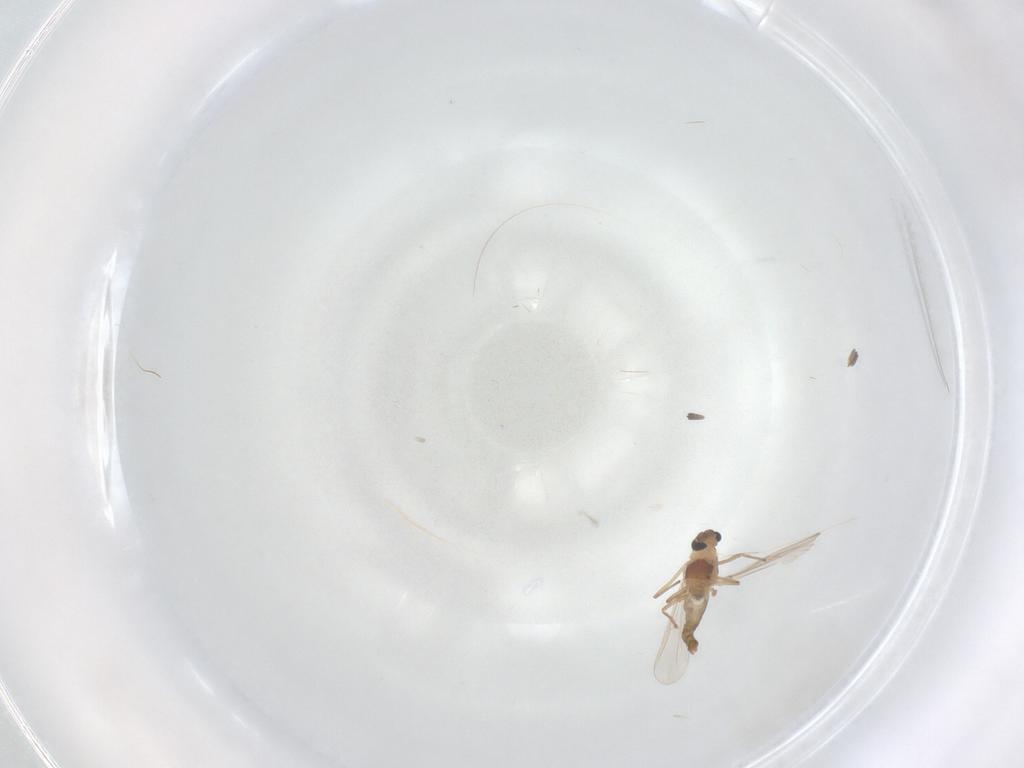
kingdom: Animalia
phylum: Arthropoda
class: Insecta
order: Diptera
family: Chironomidae
